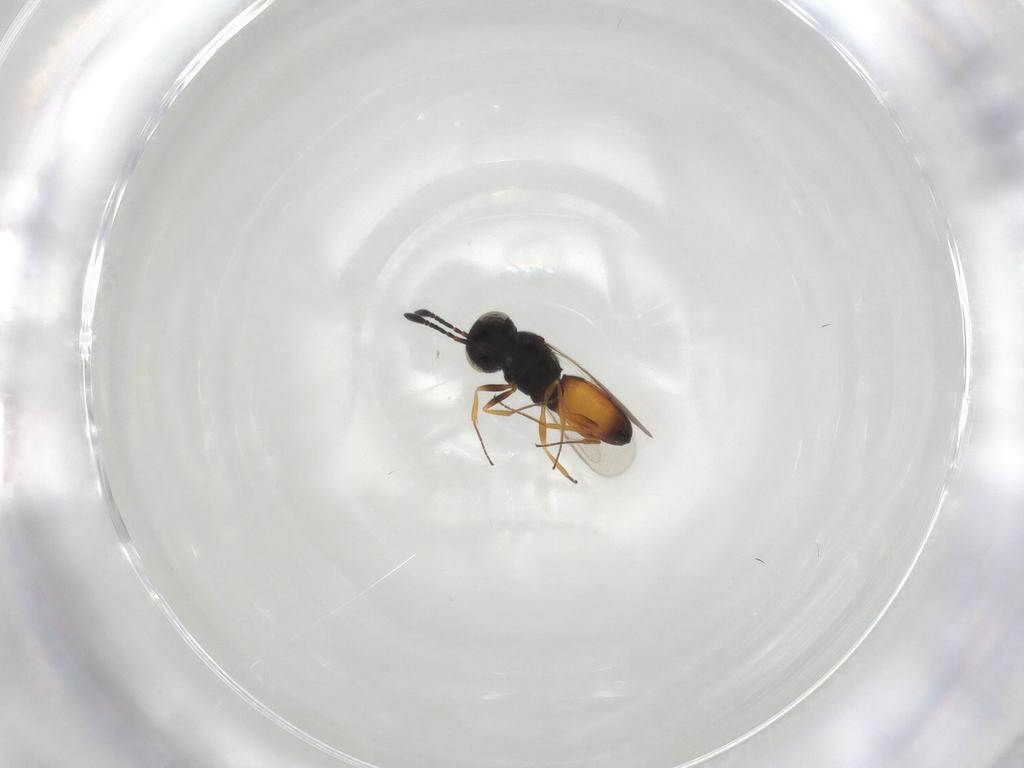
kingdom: Animalia
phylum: Arthropoda
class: Insecta
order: Hymenoptera
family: Scelionidae
